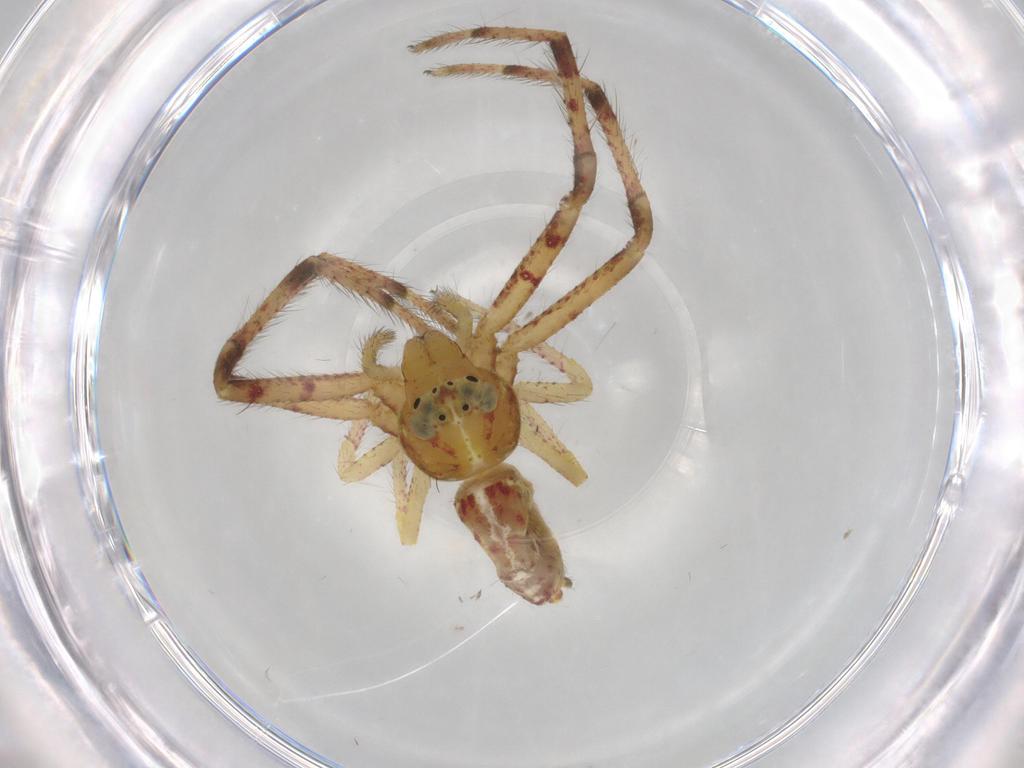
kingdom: Animalia
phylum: Arthropoda
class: Arachnida
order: Araneae
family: Thomisidae
